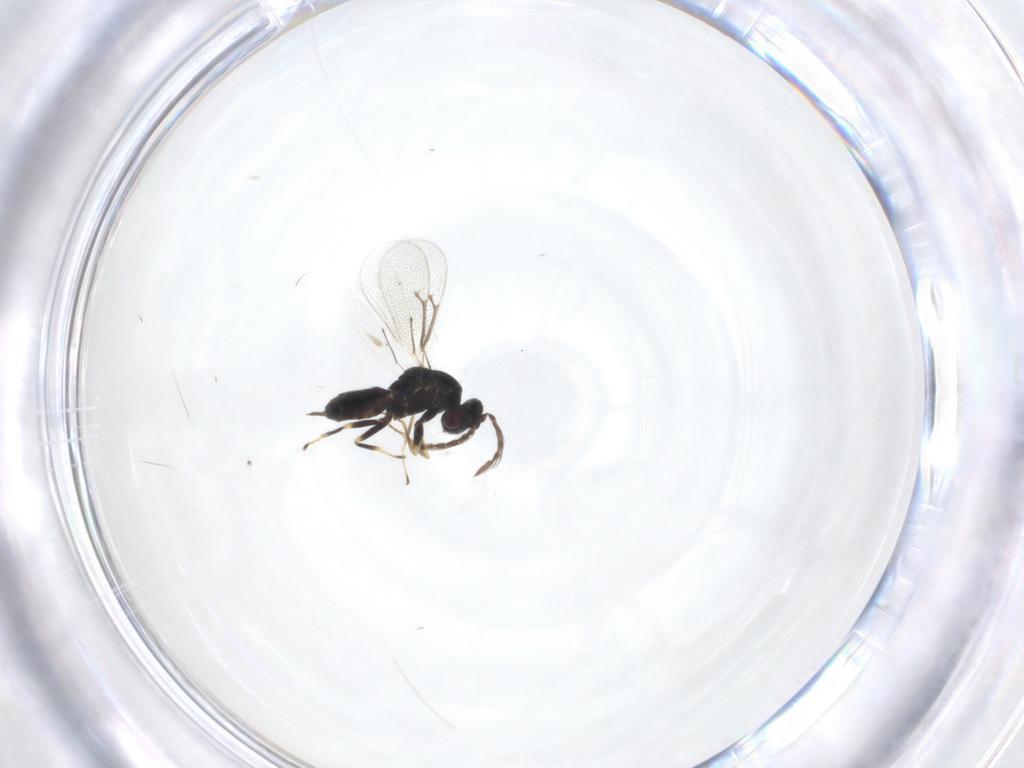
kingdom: Animalia
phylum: Arthropoda
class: Insecta
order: Hymenoptera
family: Eulophidae
